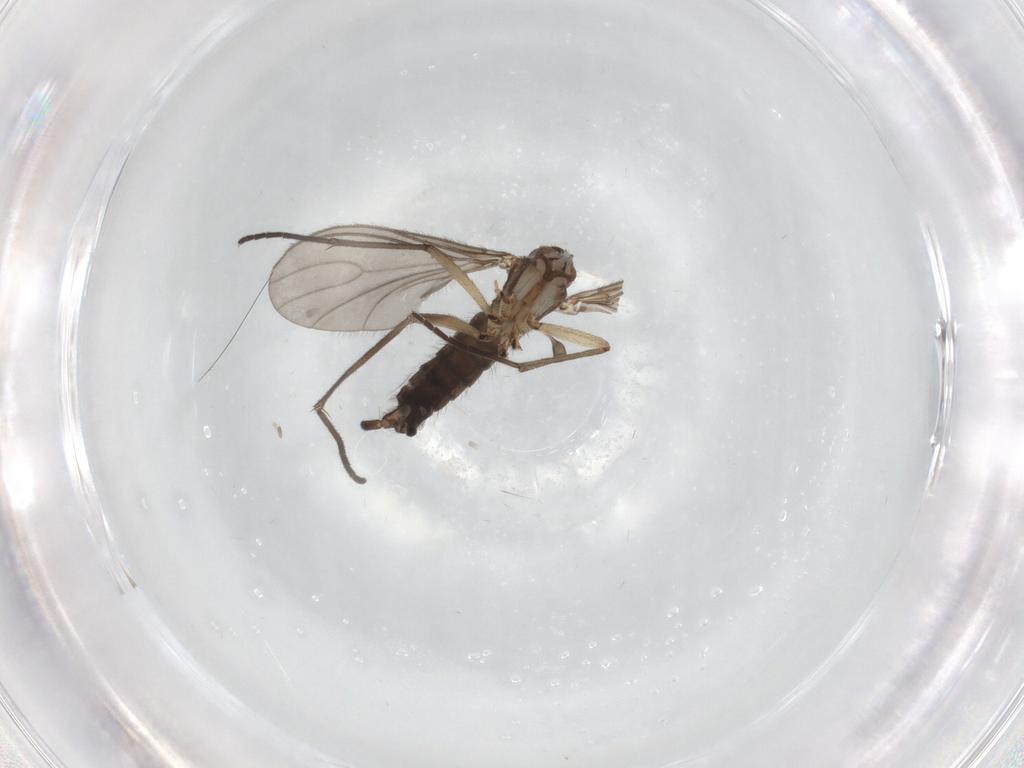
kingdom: Animalia
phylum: Arthropoda
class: Insecta
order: Diptera
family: Sciaridae
